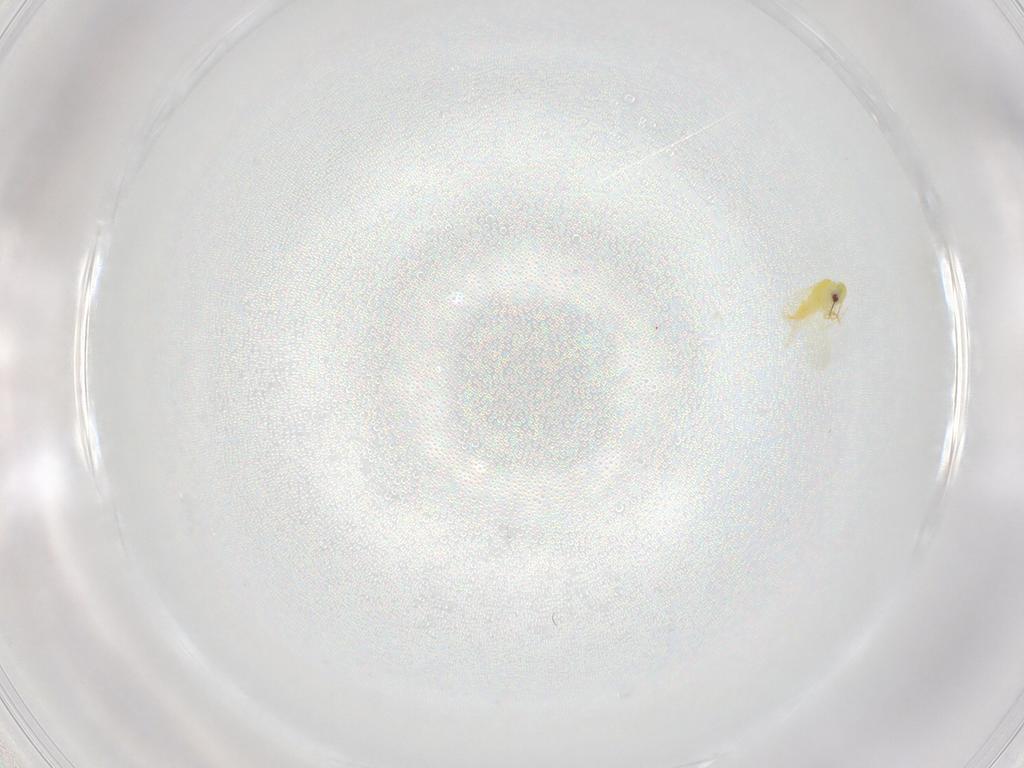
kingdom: Animalia
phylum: Arthropoda
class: Insecta
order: Hemiptera
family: Aleyrodidae
